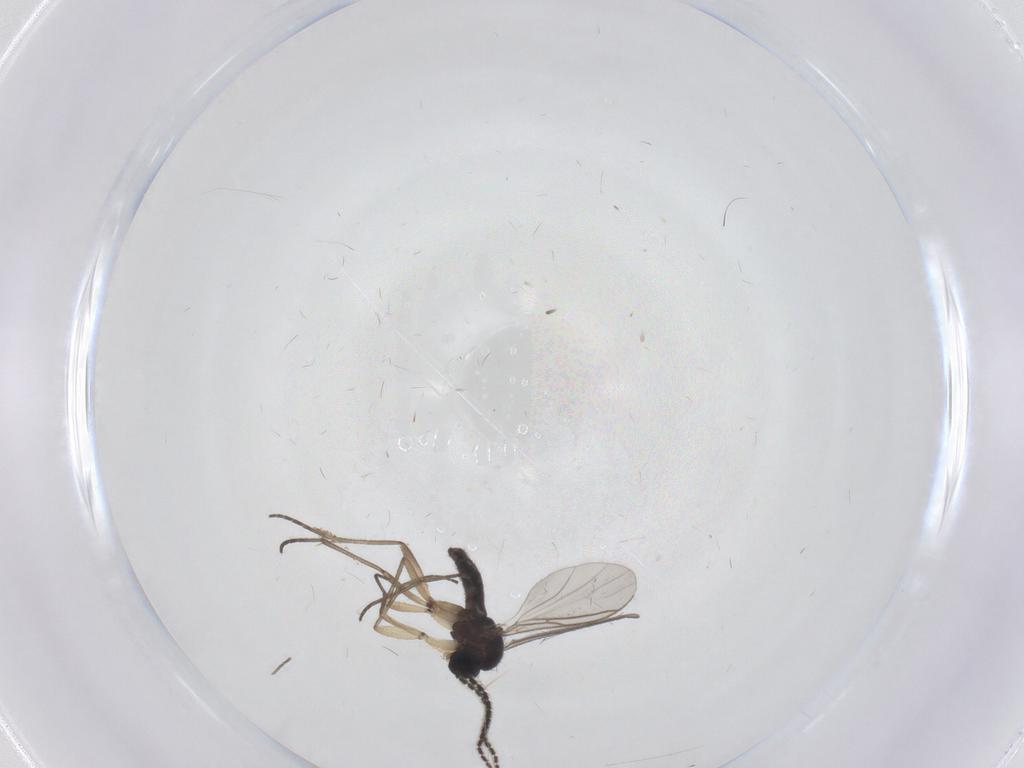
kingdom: Animalia
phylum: Arthropoda
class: Insecta
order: Diptera
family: Sciaridae
